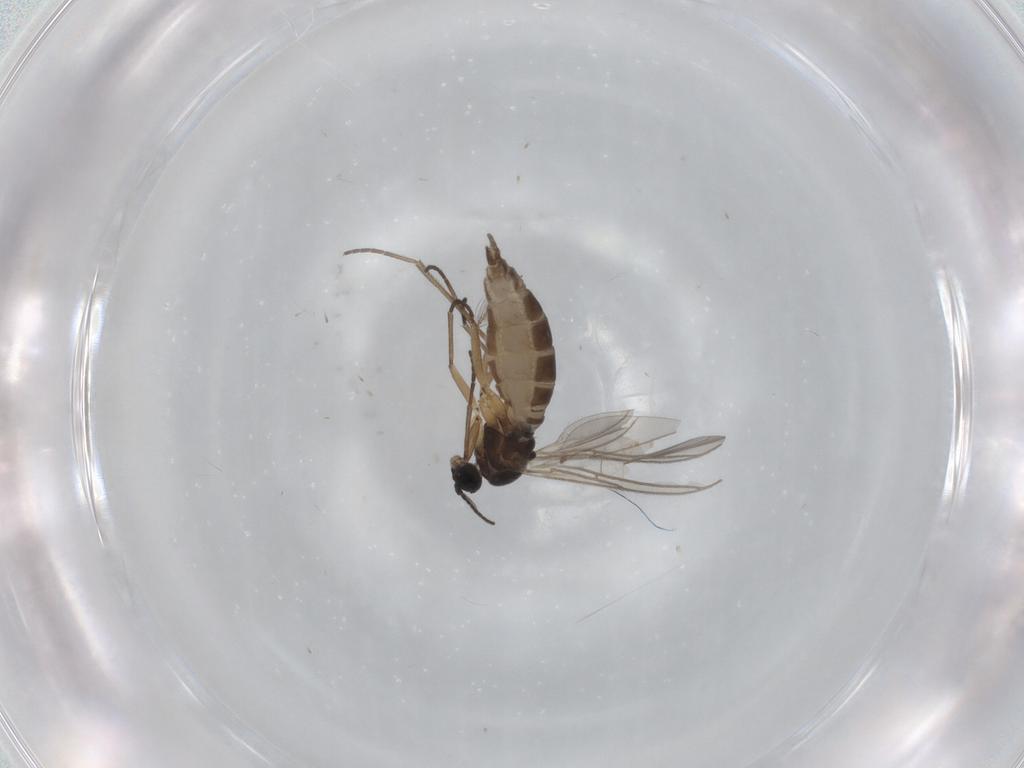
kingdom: Animalia
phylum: Arthropoda
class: Insecta
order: Diptera
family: Ceratopogonidae
